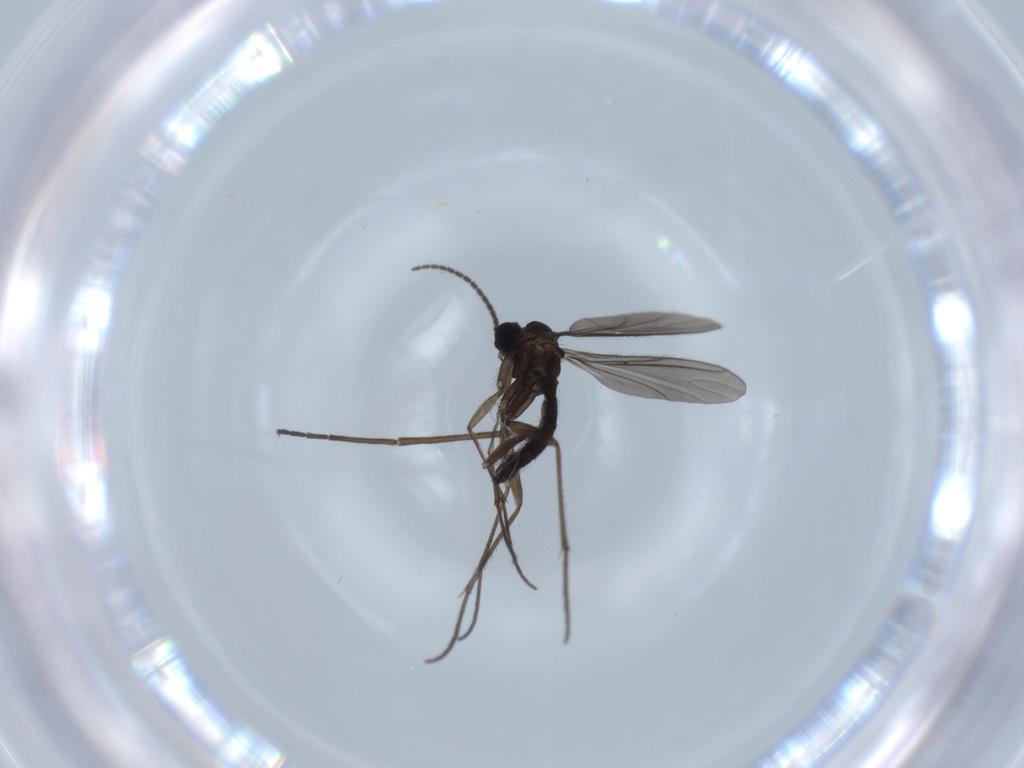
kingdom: Animalia
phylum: Arthropoda
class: Insecta
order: Diptera
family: Sciaridae
